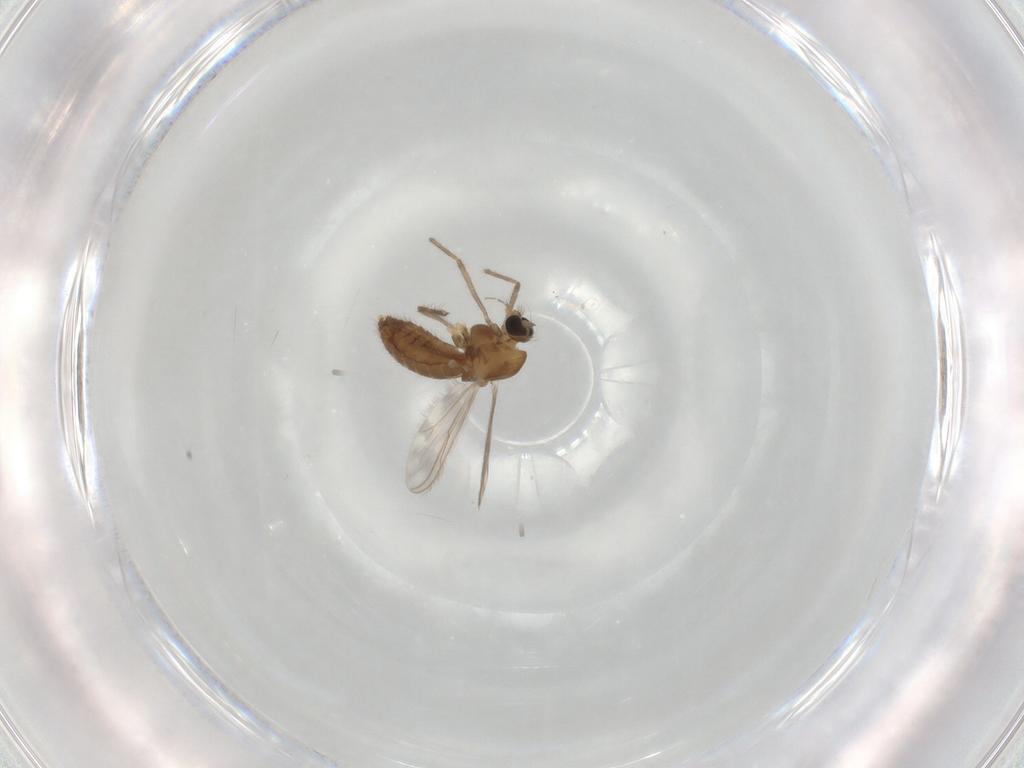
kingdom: Animalia
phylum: Arthropoda
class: Insecta
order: Diptera
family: Chironomidae
